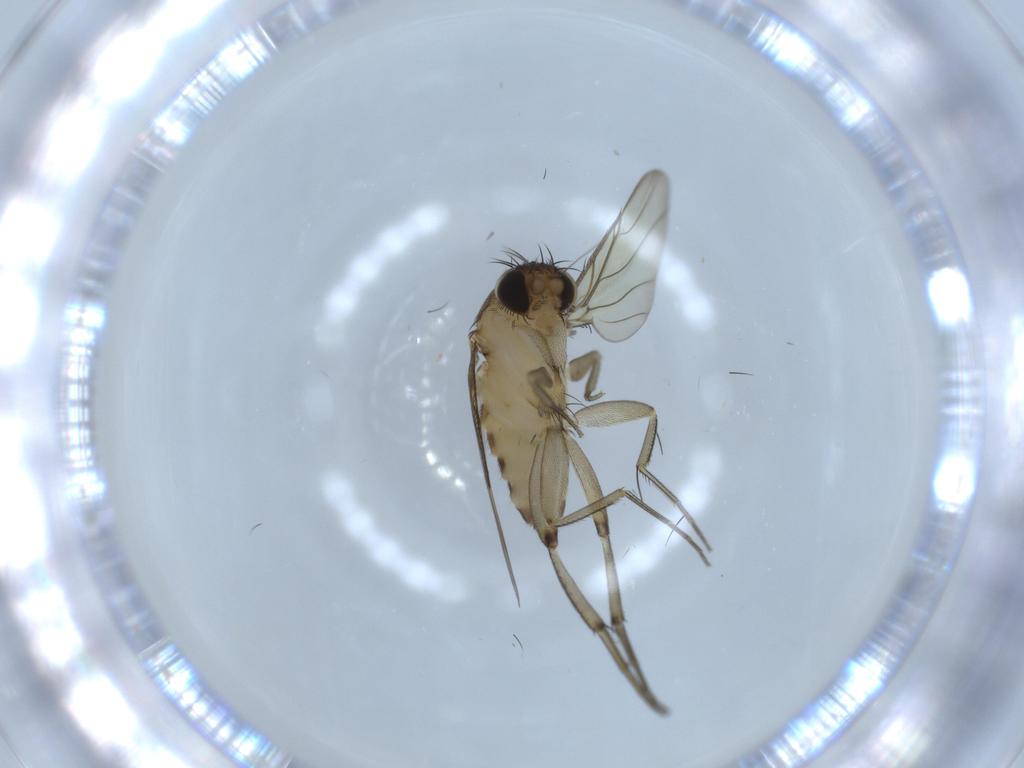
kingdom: Animalia
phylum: Arthropoda
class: Insecta
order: Diptera
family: Phoridae
